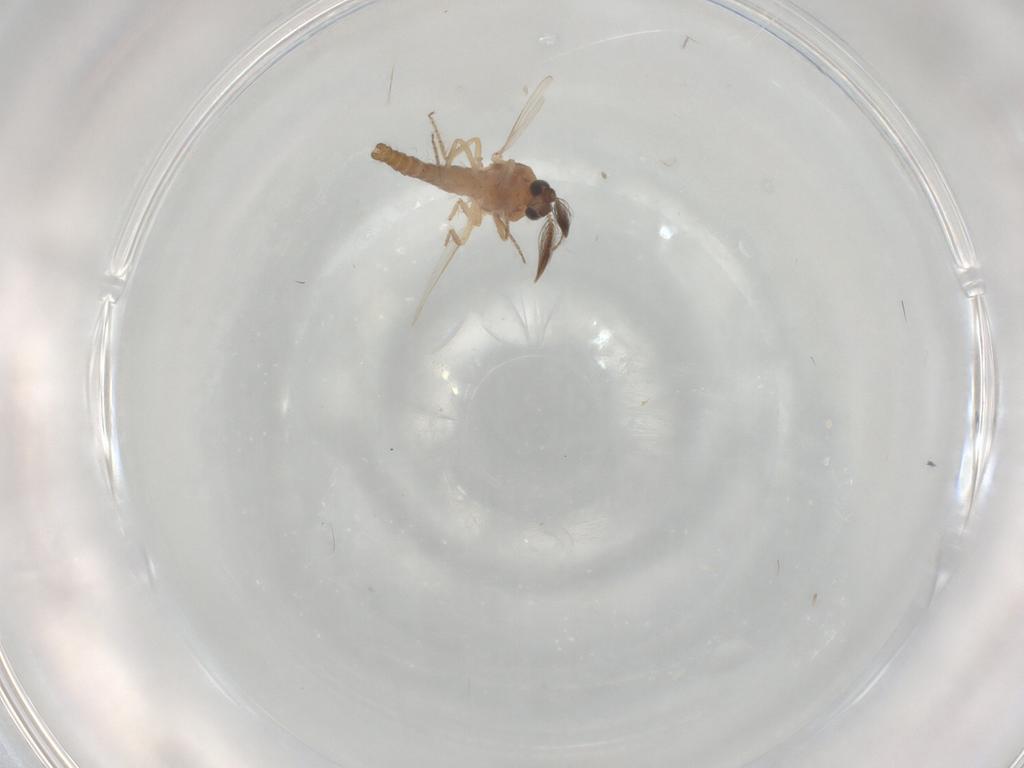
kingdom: Animalia
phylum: Arthropoda
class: Insecta
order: Diptera
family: Ceratopogonidae
